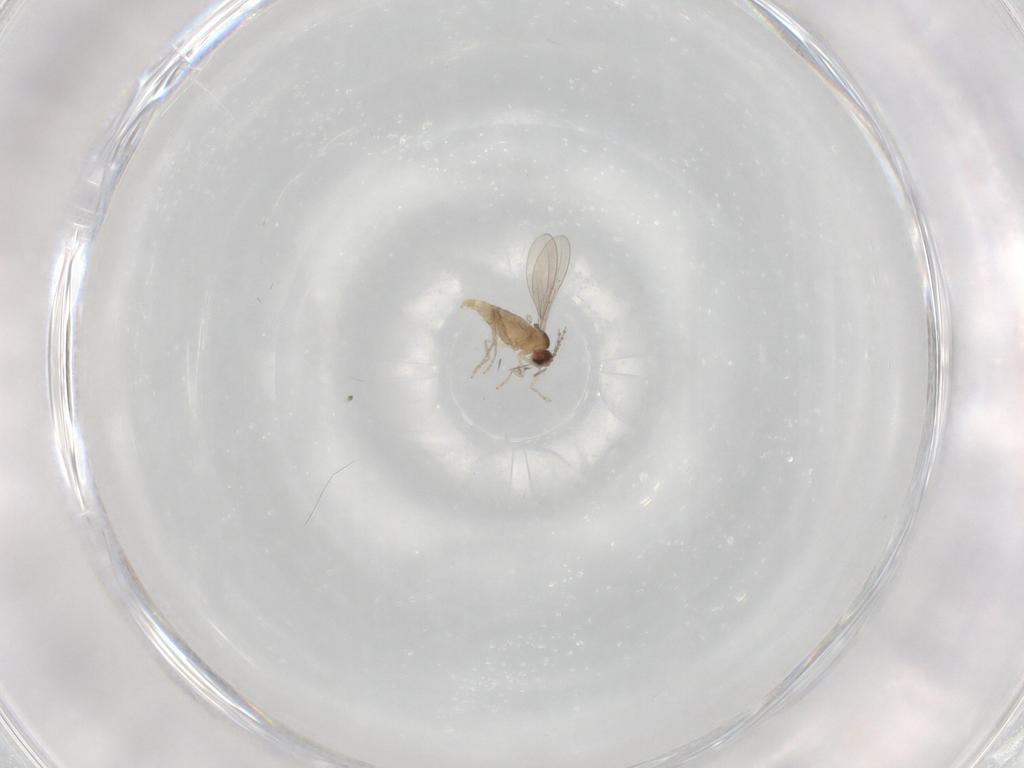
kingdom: Animalia
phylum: Arthropoda
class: Insecta
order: Diptera
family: Cecidomyiidae
